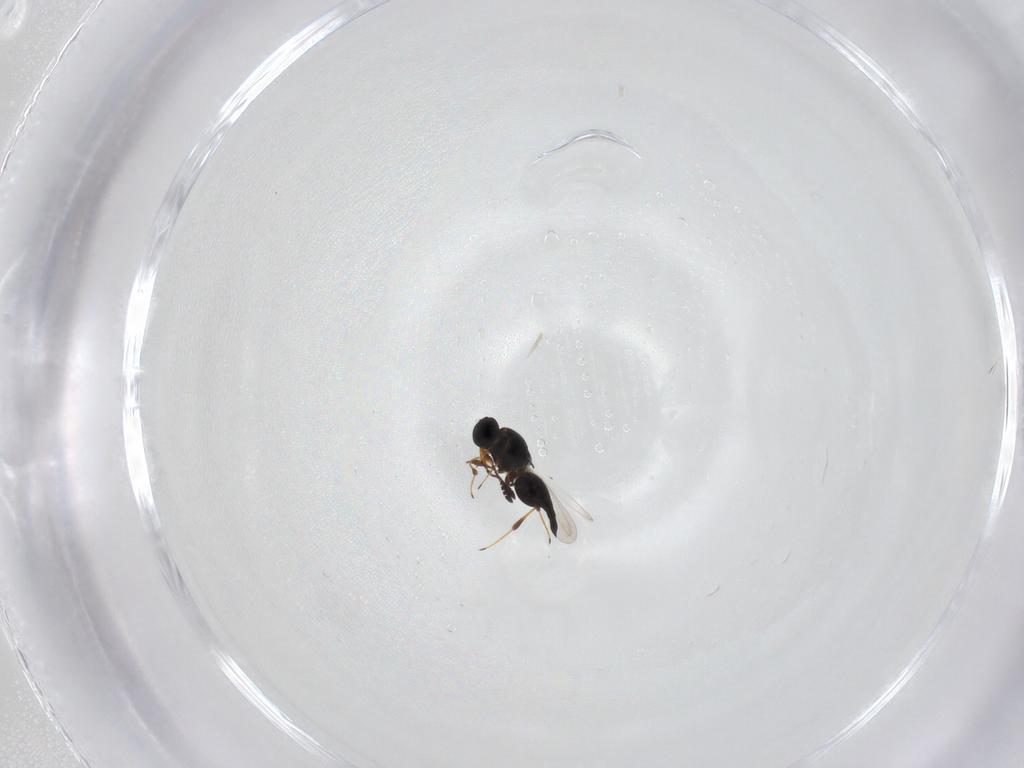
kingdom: Animalia
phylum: Arthropoda
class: Insecta
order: Hymenoptera
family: Platygastridae
